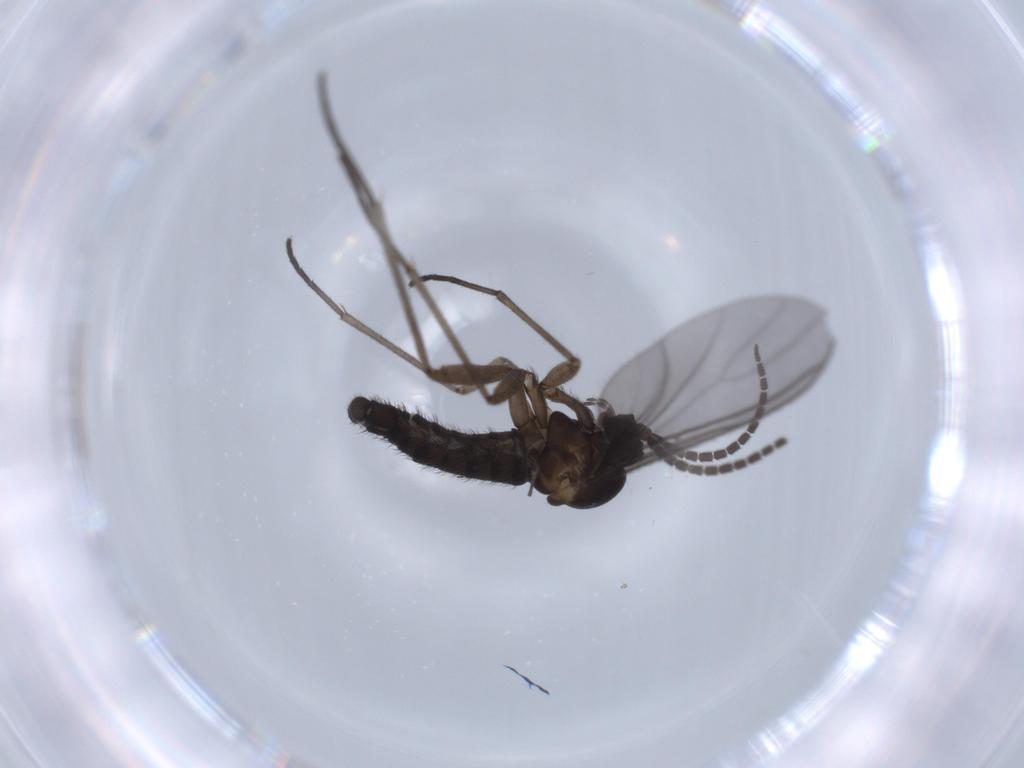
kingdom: Animalia
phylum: Arthropoda
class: Insecta
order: Diptera
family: Sciaridae
